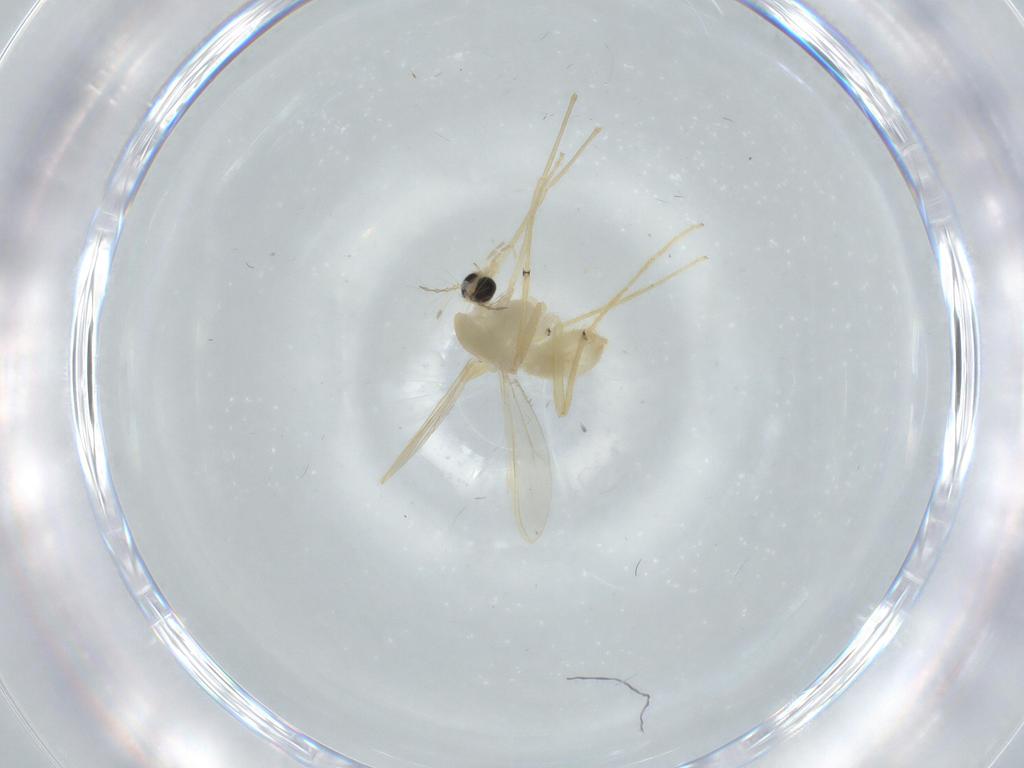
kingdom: Animalia
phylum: Arthropoda
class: Insecta
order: Diptera
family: Chironomidae
